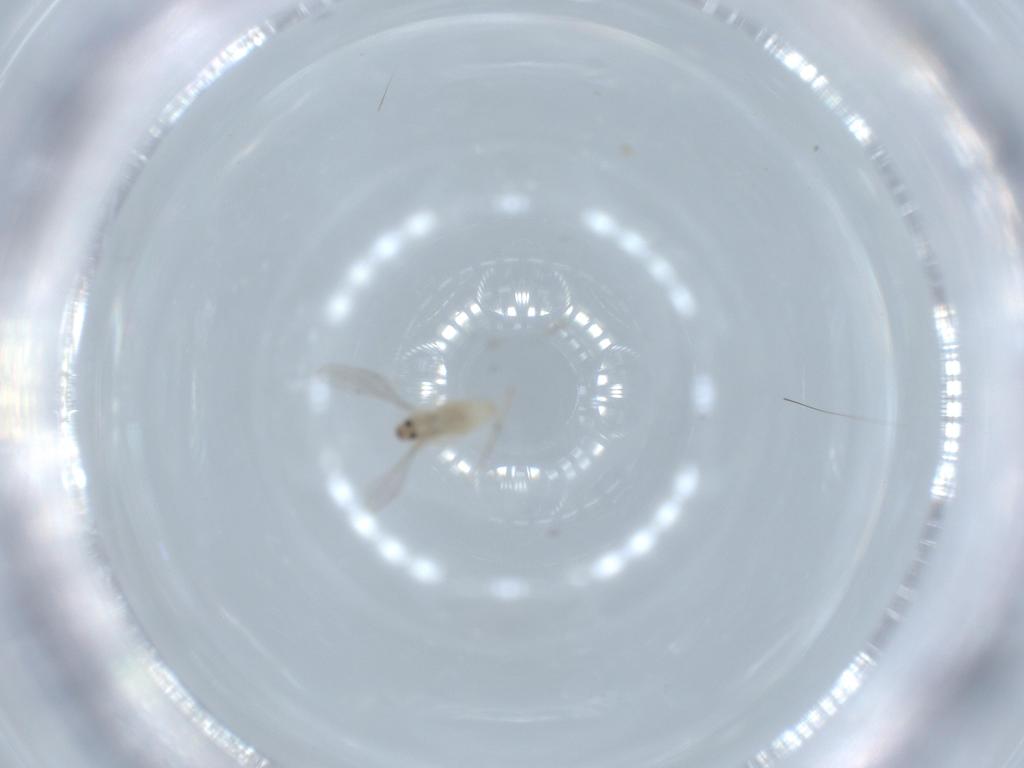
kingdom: Animalia
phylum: Arthropoda
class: Insecta
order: Diptera
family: Cecidomyiidae
